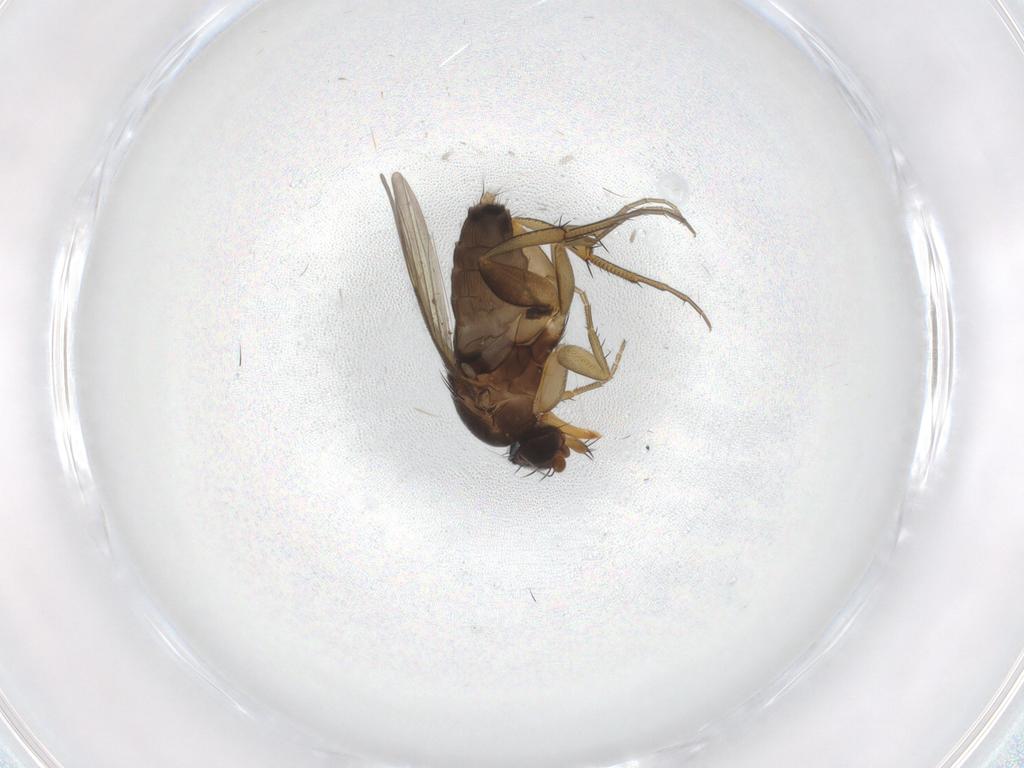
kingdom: Animalia
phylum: Arthropoda
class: Insecta
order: Diptera
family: Phoridae
